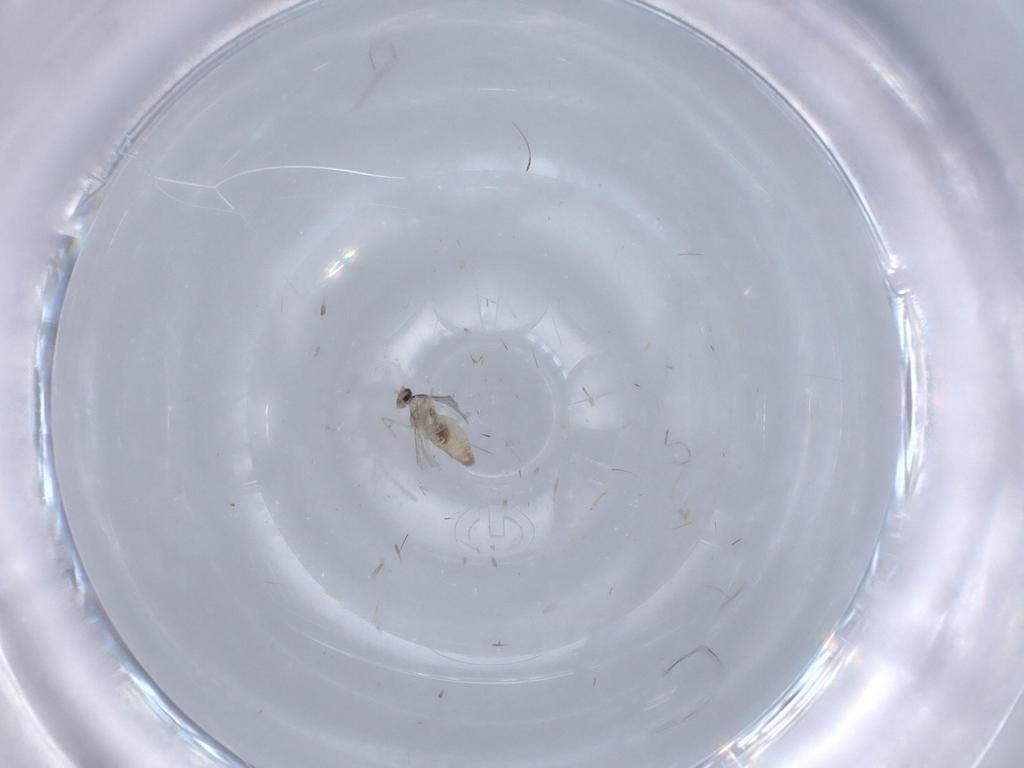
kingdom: Animalia
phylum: Arthropoda
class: Insecta
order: Diptera
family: Cecidomyiidae
